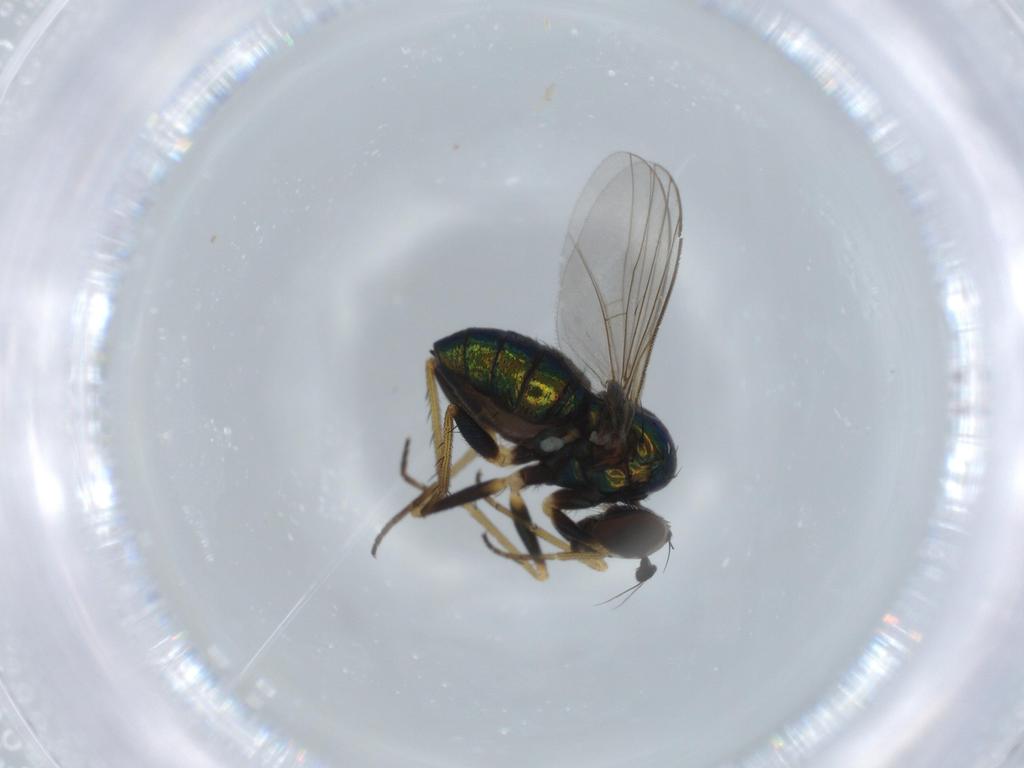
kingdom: Animalia
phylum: Arthropoda
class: Insecta
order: Diptera
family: Dolichopodidae
